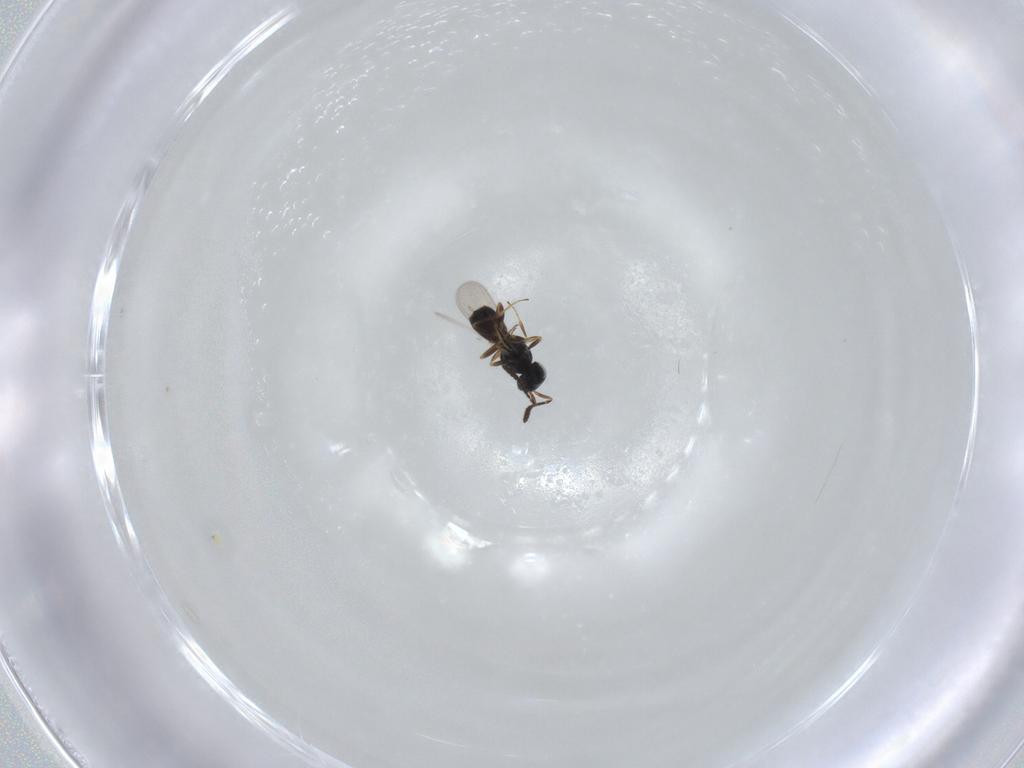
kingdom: Animalia
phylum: Arthropoda
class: Insecta
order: Hymenoptera
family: Scelionidae
